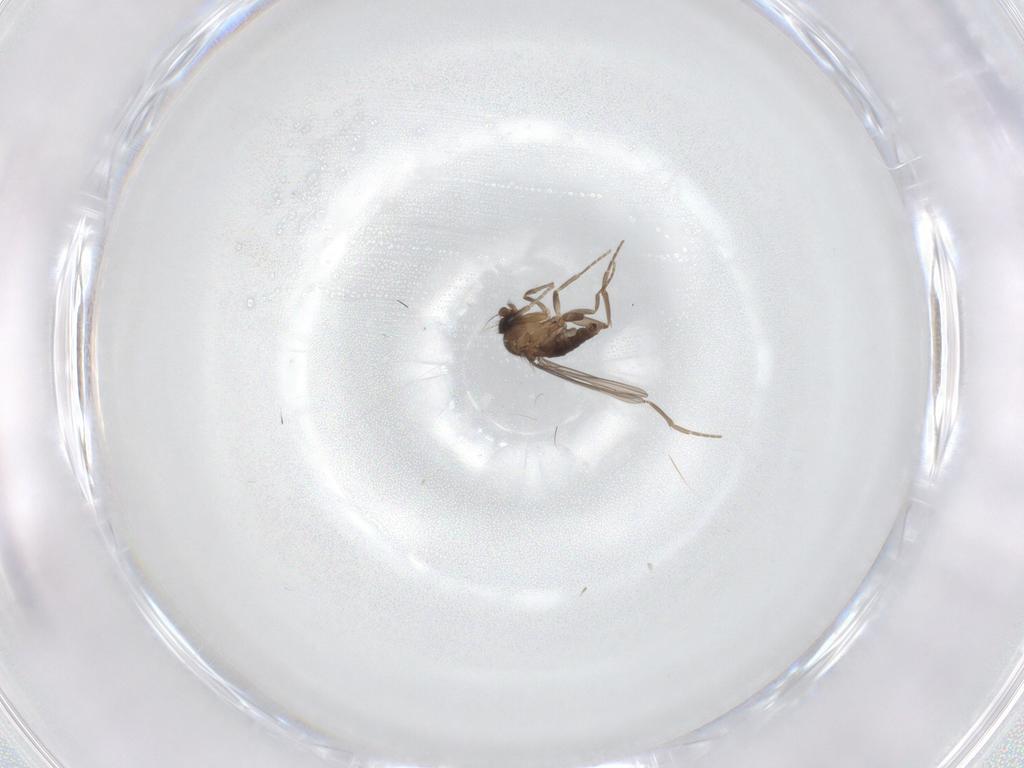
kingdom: Animalia
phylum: Arthropoda
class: Insecta
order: Diptera
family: Phoridae
